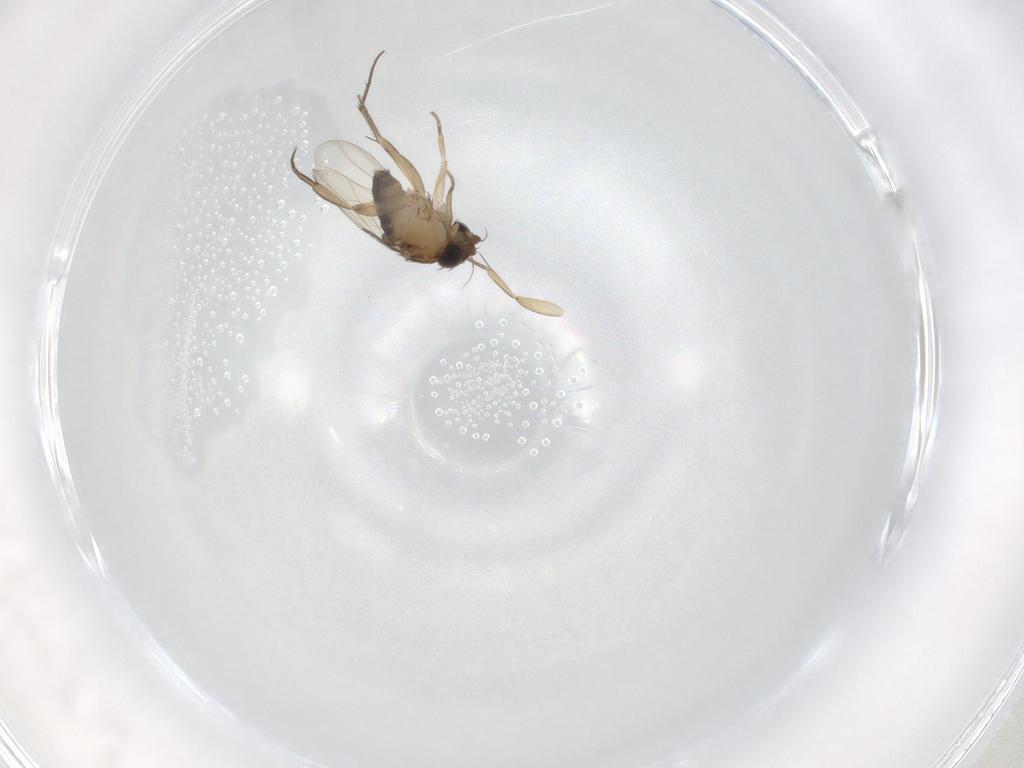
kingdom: Animalia
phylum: Arthropoda
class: Insecta
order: Diptera
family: Phoridae
